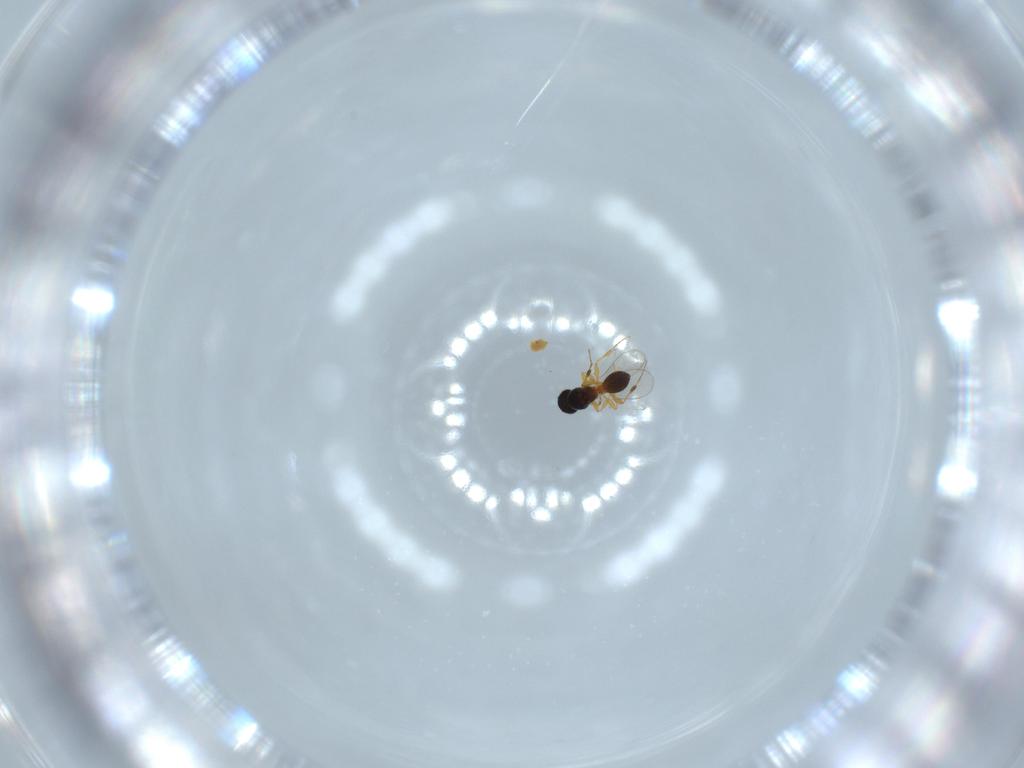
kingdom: Animalia
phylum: Arthropoda
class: Insecta
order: Hymenoptera
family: Platygastridae
